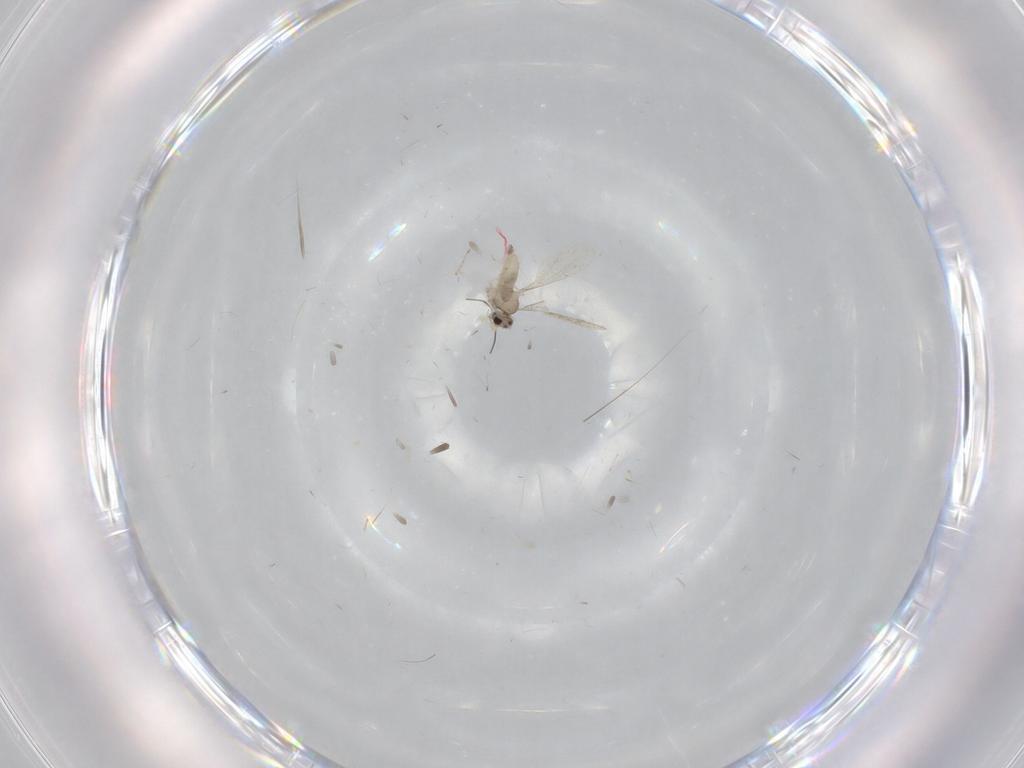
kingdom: Animalia
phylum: Arthropoda
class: Insecta
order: Diptera
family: Cecidomyiidae
